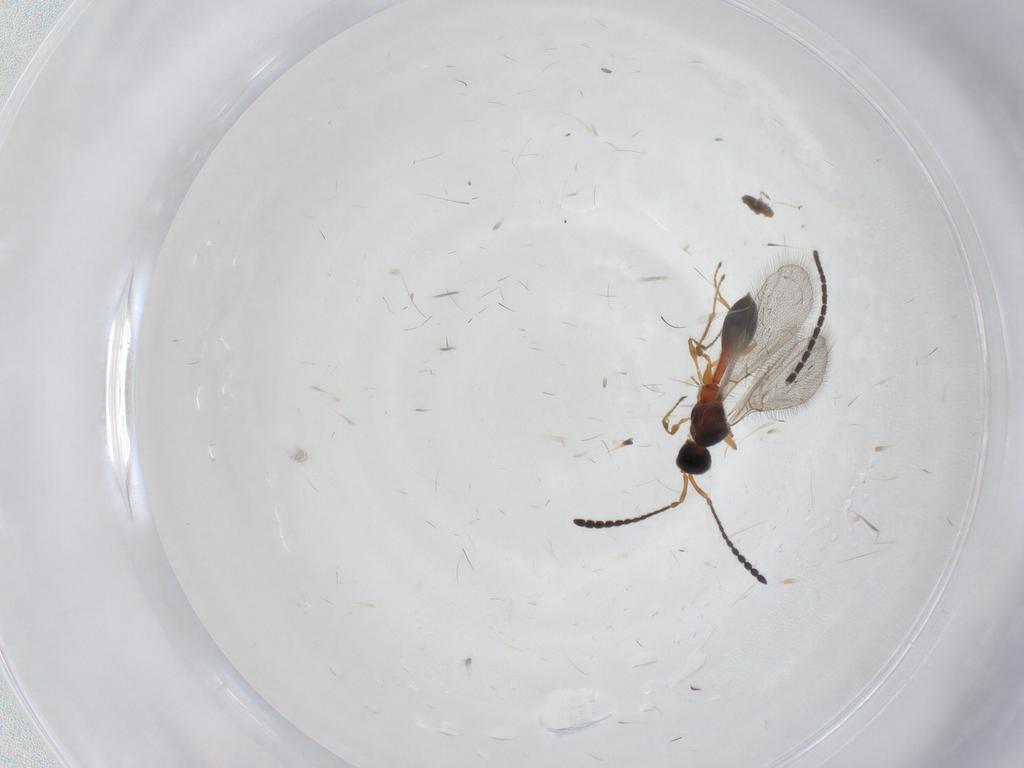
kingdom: Animalia
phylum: Arthropoda
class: Insecta
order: Hymenoptera
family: Diapriidae
